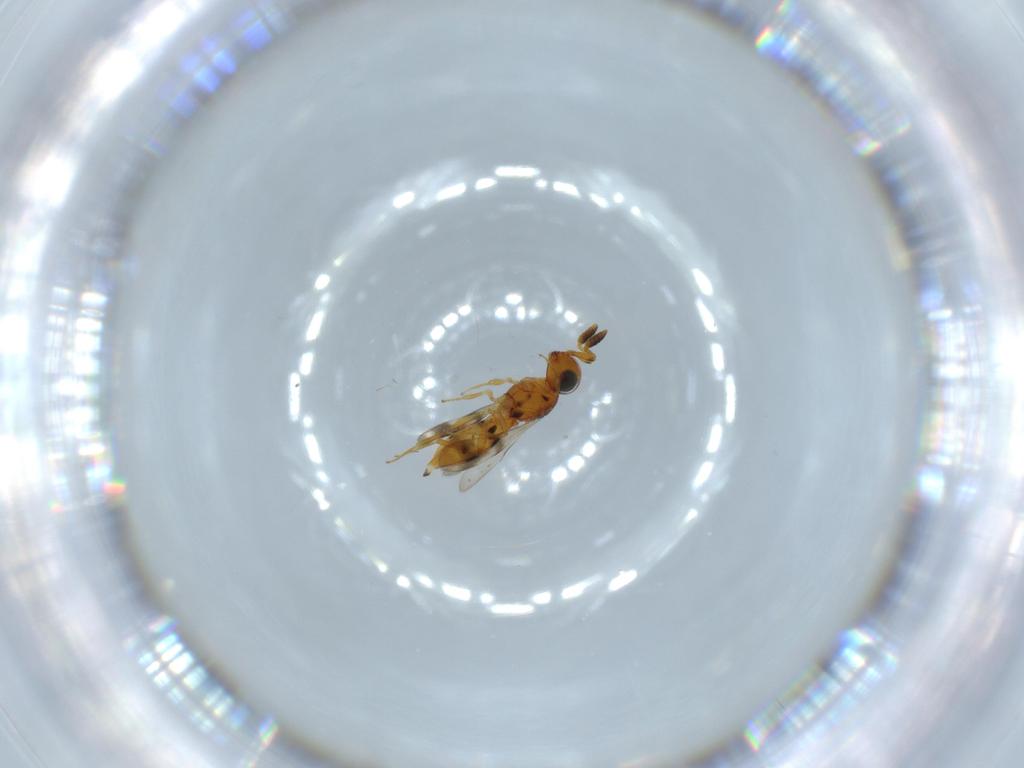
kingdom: Animalia
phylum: Arthropoda
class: Insecta
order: Hymenoptera
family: Scelionidae
